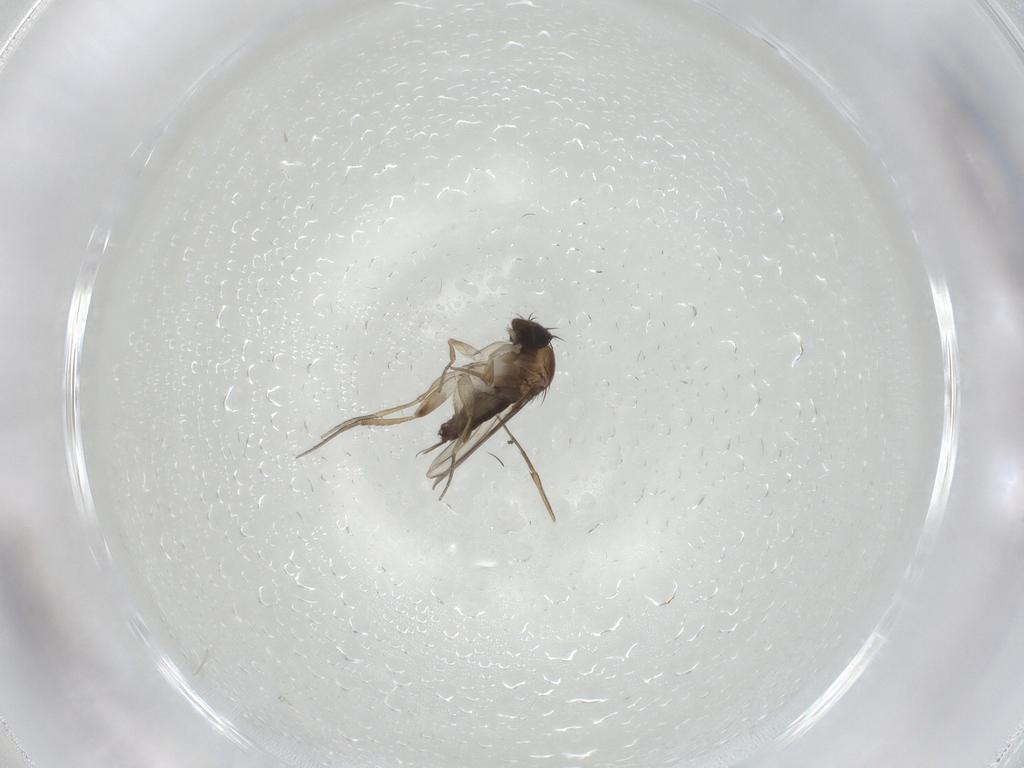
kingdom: Animalia
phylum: Arthropoda
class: Insecta
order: Diptera
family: Phoridae
